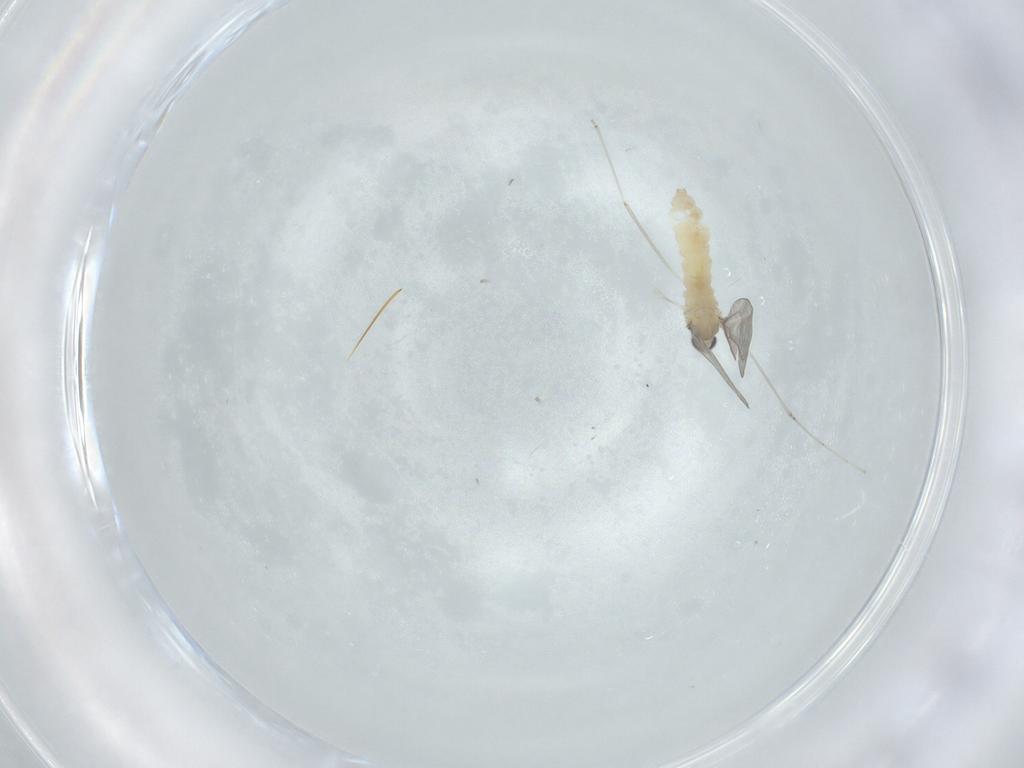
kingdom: Animalia
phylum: Arthropoda
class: Insecta
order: Diptera
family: Cecidomyiidae
